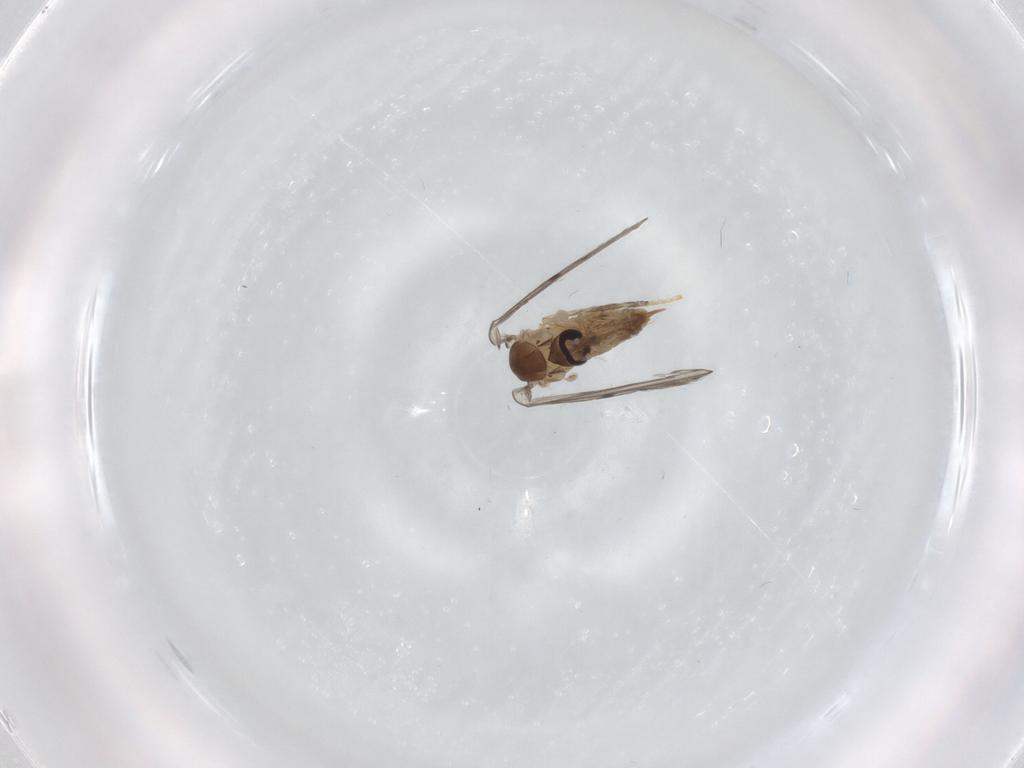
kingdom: Animalia
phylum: Arthropoda
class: Insecta
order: Diptera
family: Psychodidae
